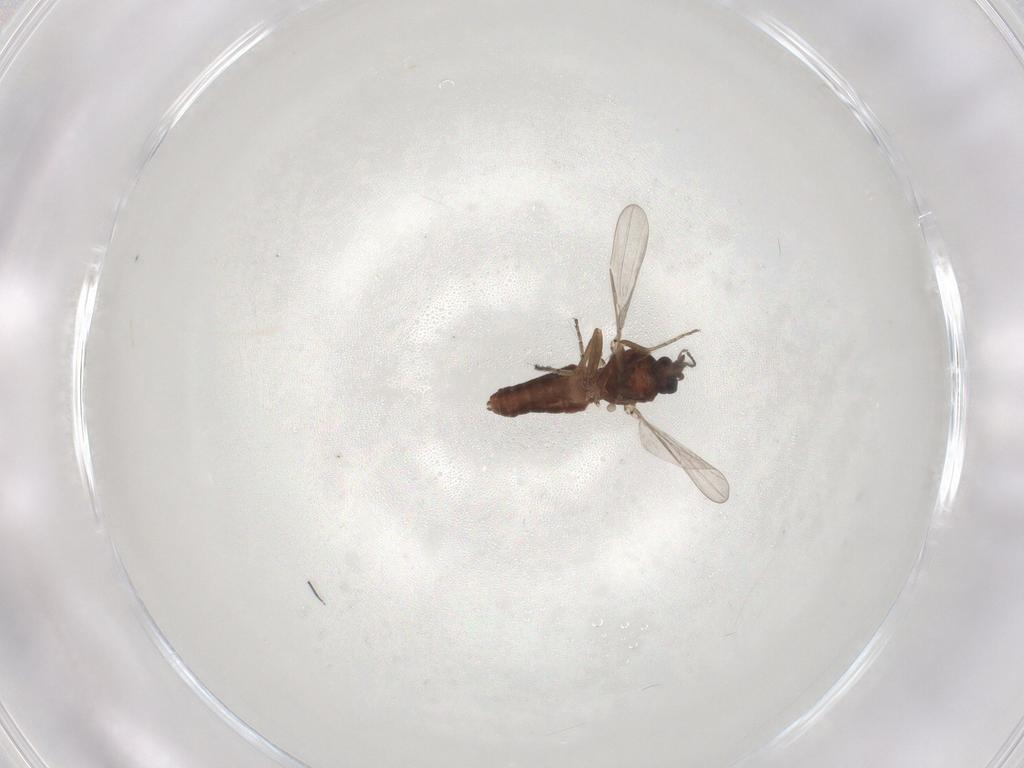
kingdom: Animalia
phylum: Arthropoda
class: Insecta
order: Diptera
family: Ceratopogonidae
